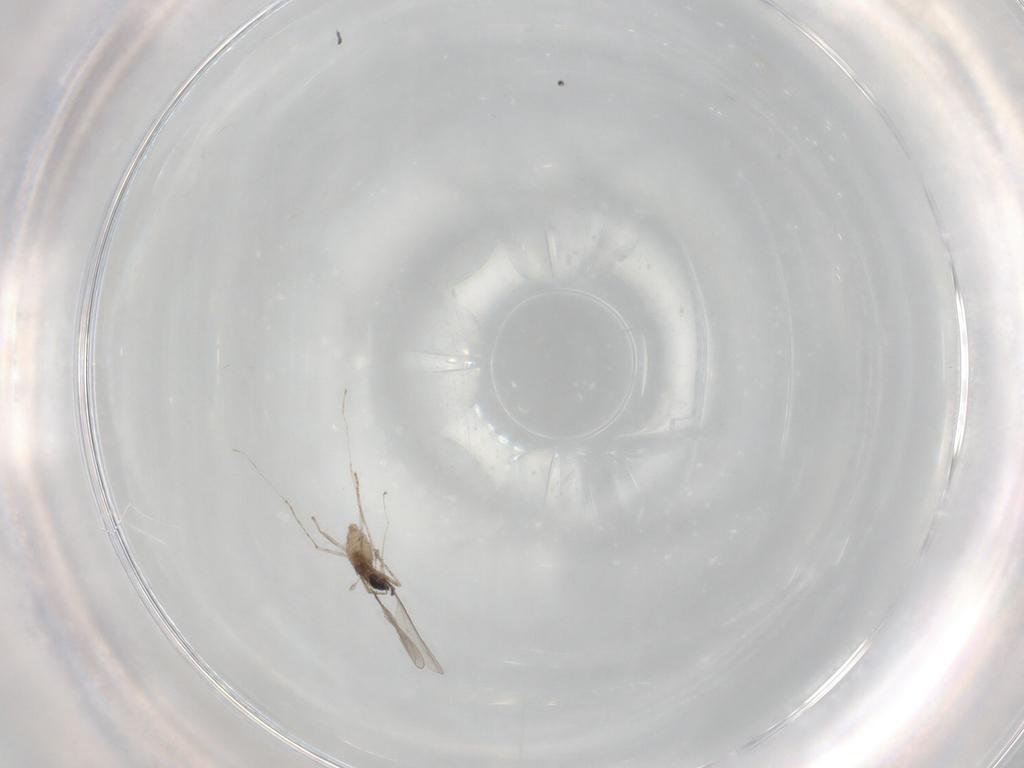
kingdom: Animalia
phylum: Arthropoda
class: Insecta
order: Diptera
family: Cecidomyiidae
